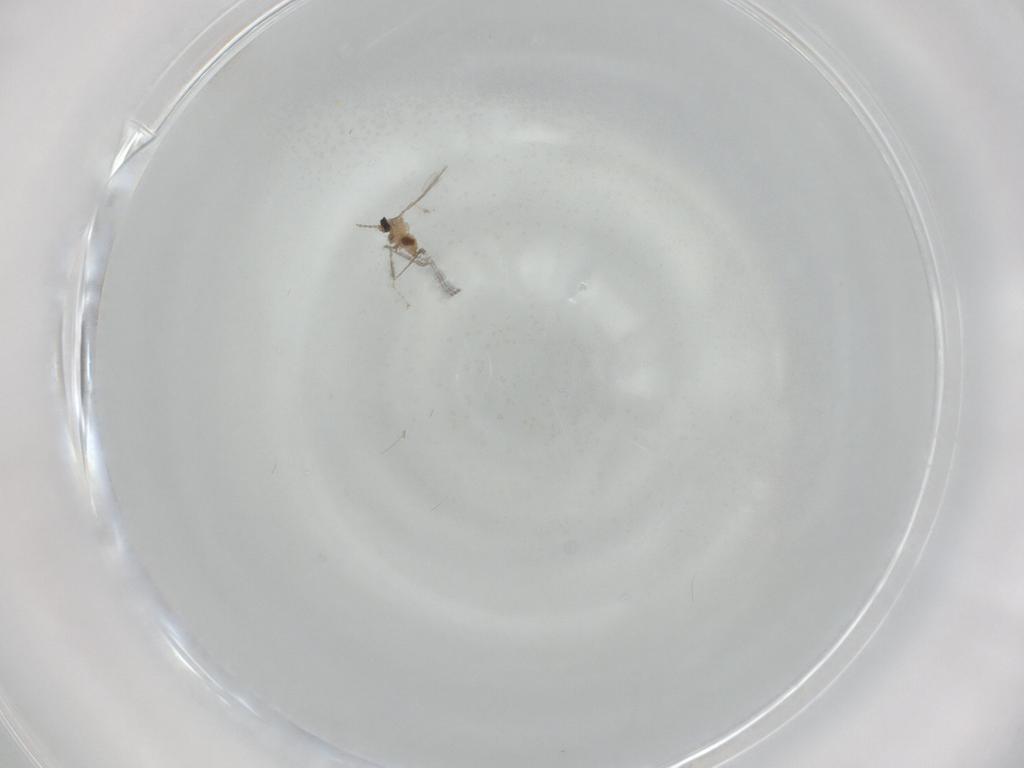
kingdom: Animalia
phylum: Arthropoda
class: Insecta
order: Diptera
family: Cecidomyiidae
